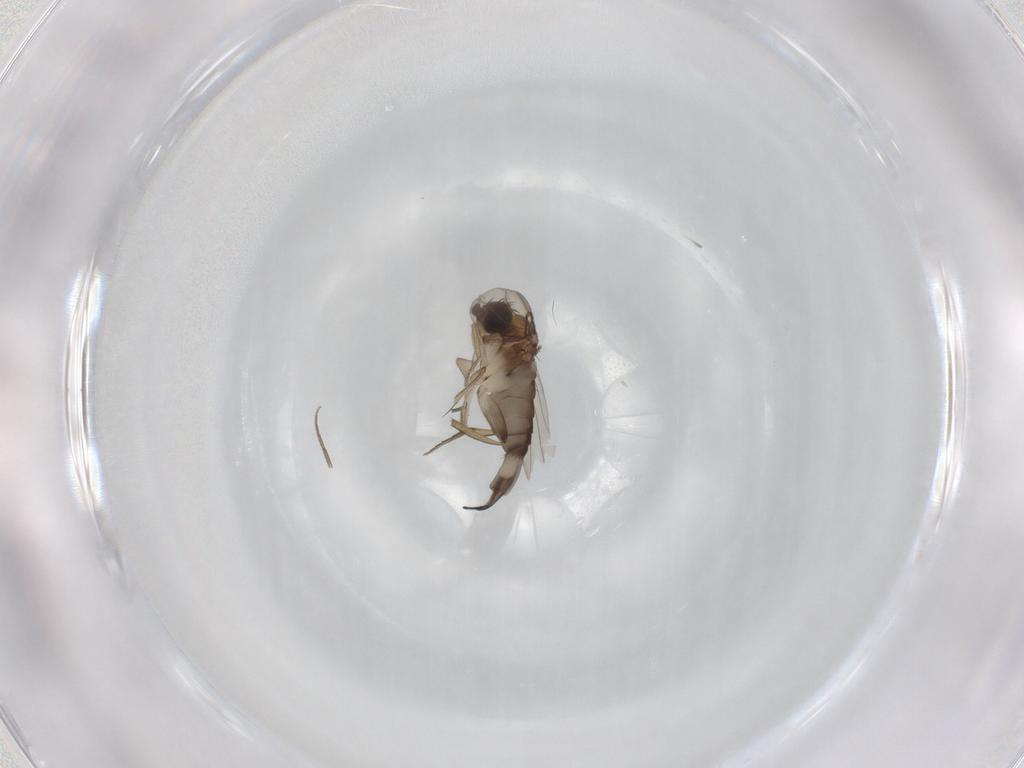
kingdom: Animalia
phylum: Arthropoda
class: Insecta
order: Diptera
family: Phoridae
